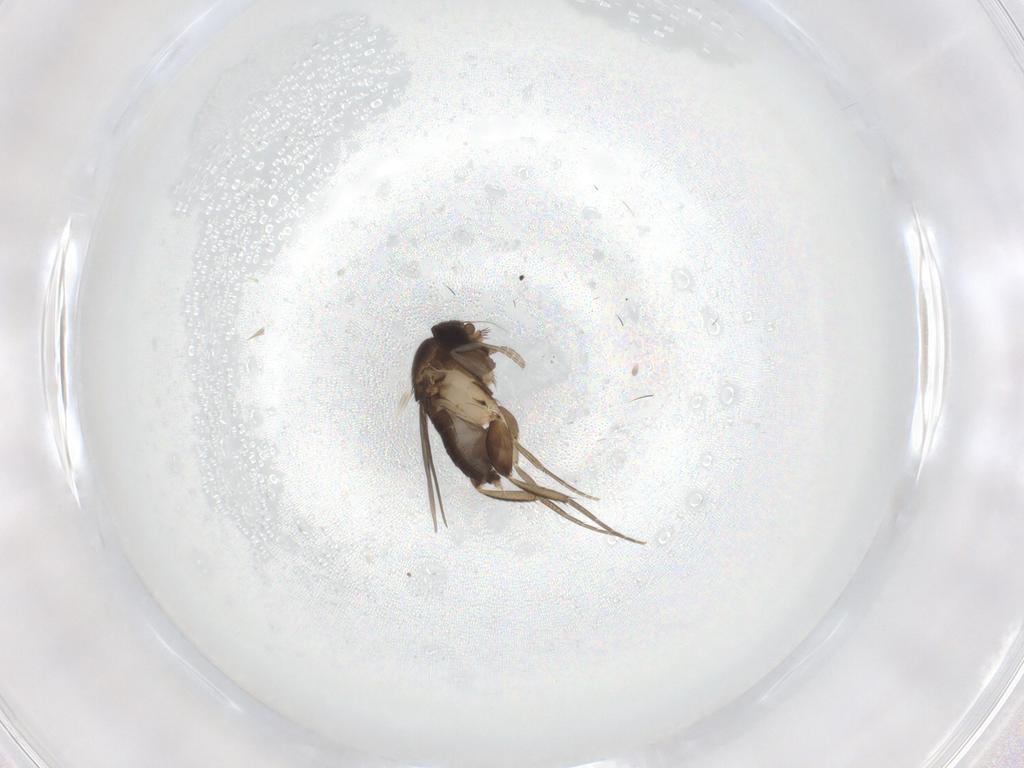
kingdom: Animalia
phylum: Arthropoda
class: Insecta
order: Diptera
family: Phoridae
